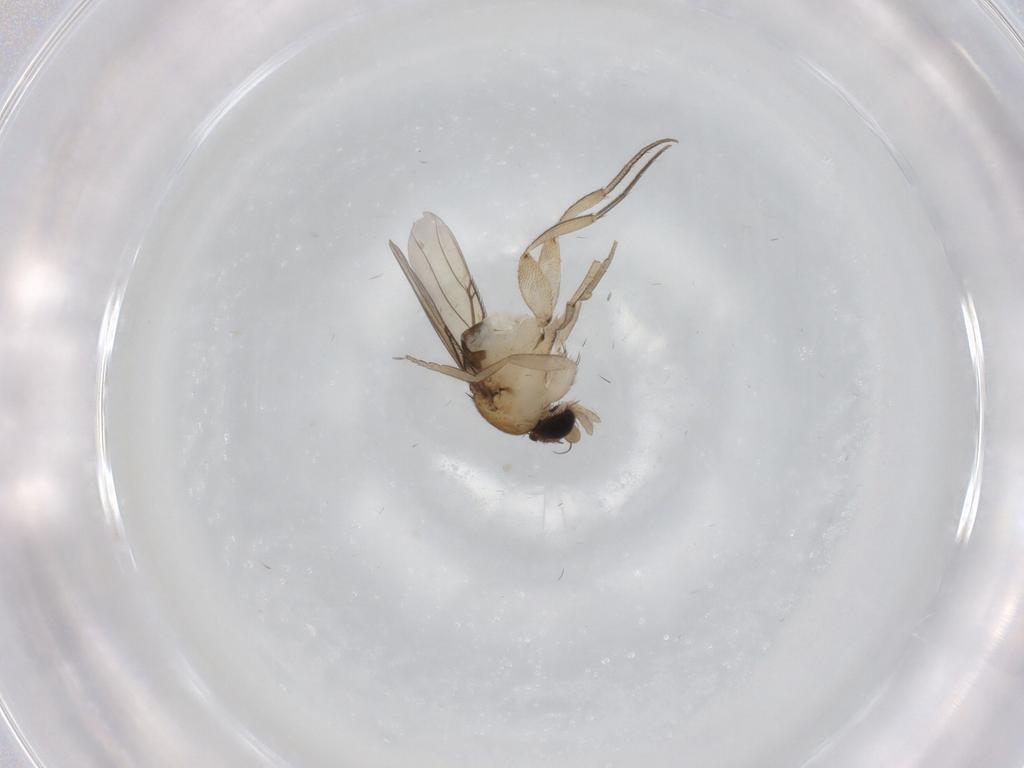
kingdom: Animalia
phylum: Arthropoda
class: Insecta
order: Diptera
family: Phoridae
